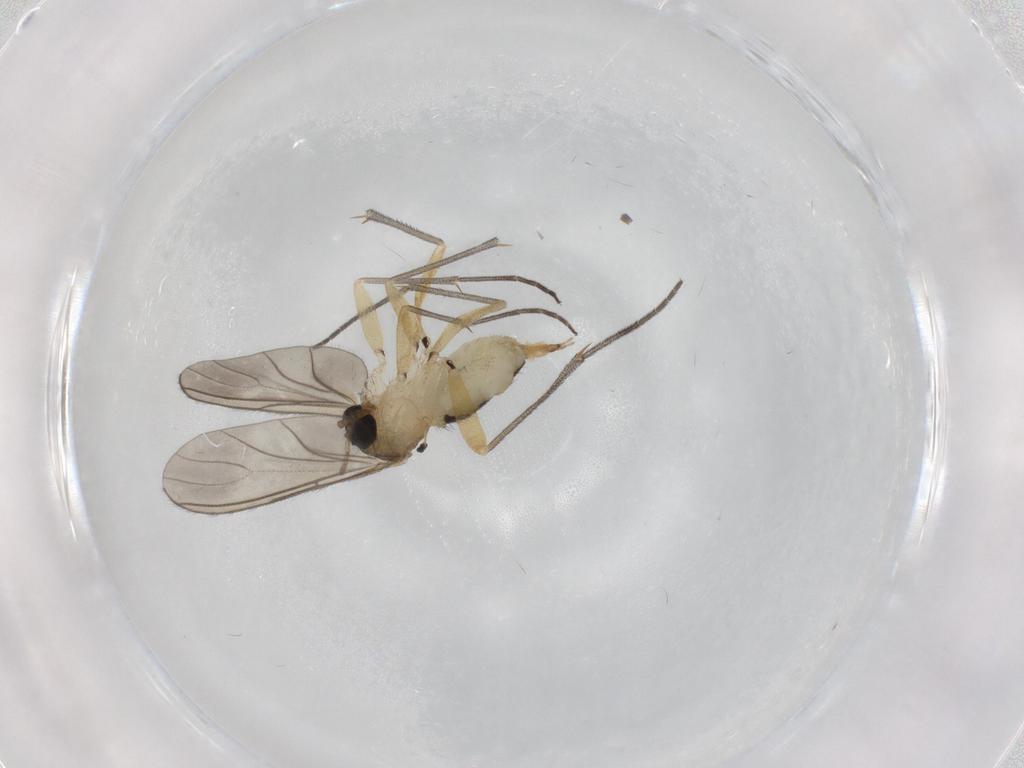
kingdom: Animalia
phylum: Arthropoda
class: Insecta
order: Diptera
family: Sciaridae
